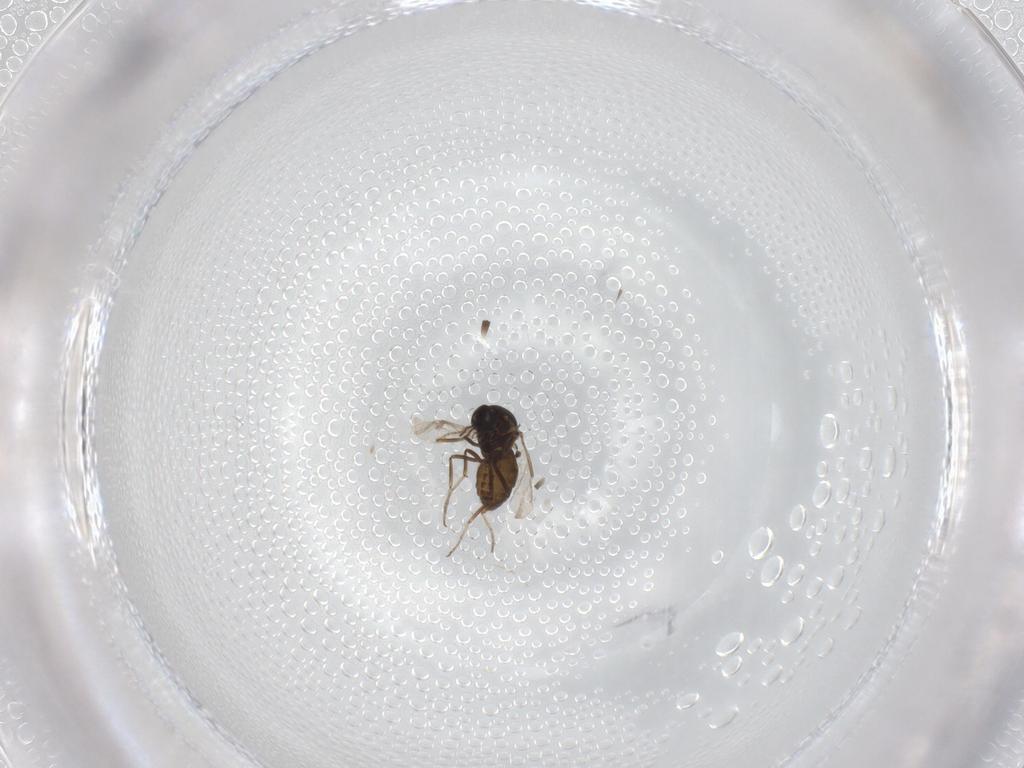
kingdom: Animalia
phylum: Arthropoda
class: Insecta
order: Diptera
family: Ceratopogonidae
